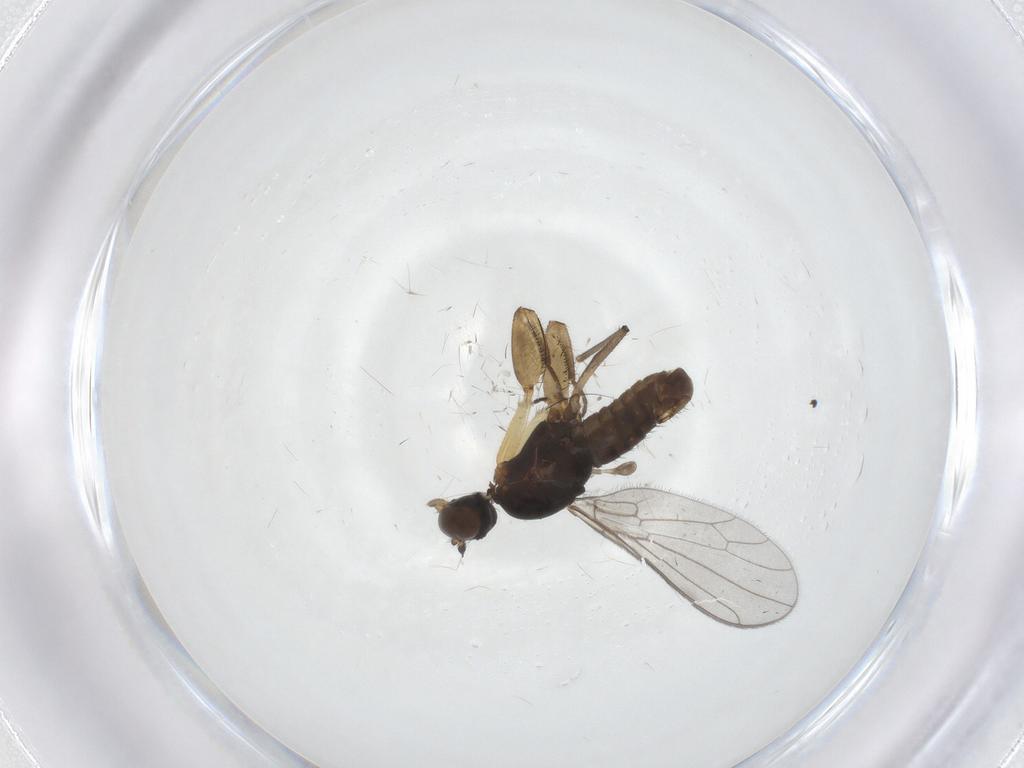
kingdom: Animalia
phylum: Arthropoda
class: Insecta
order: Diptera
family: Empididae
